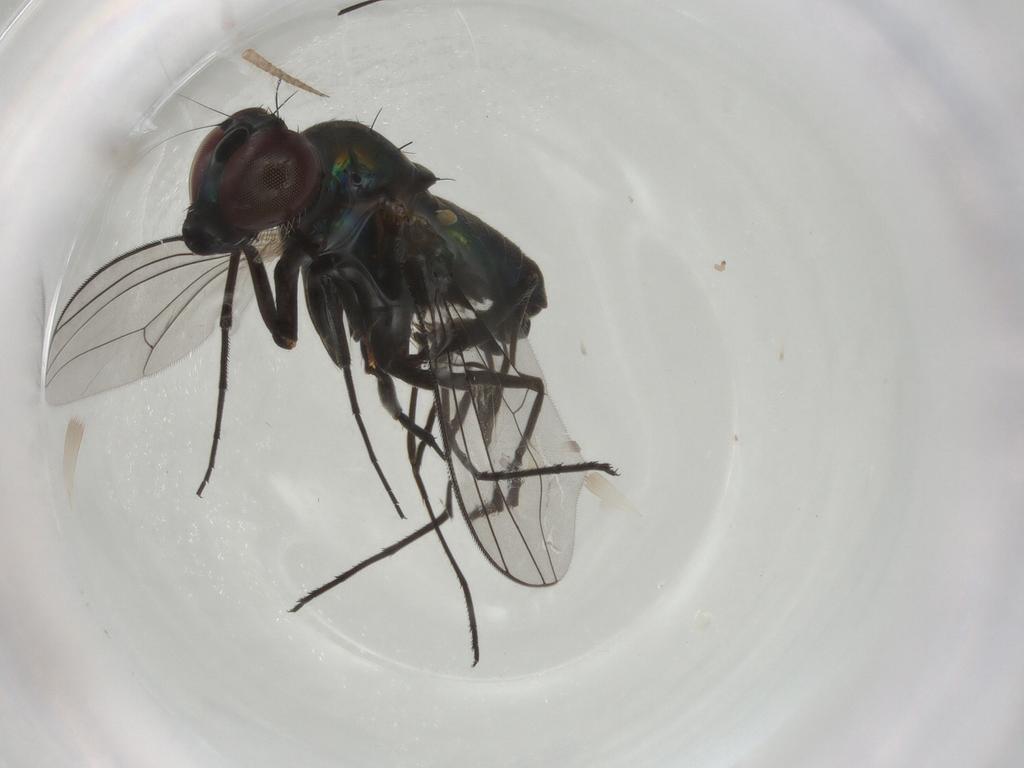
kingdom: Animalia
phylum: Arthropoda
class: Insecta
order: Diptera
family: Dolichopodidae
